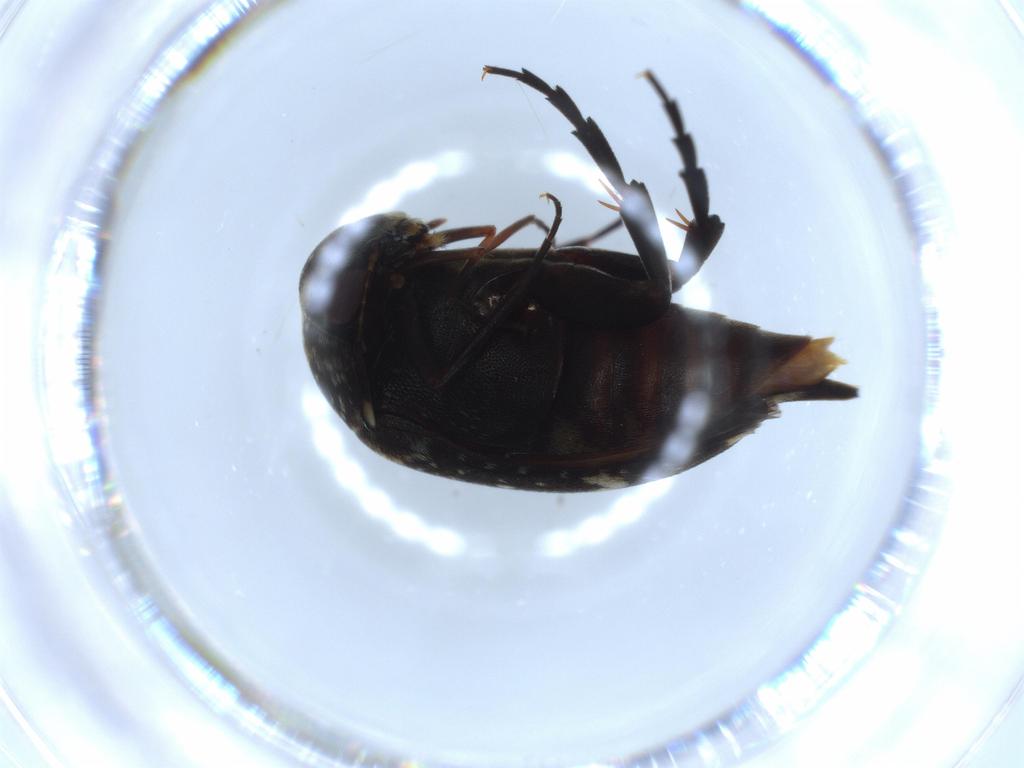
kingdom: Animalia
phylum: Arthropoda
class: Insecta
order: Coleoptera
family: Chrysomelidae
